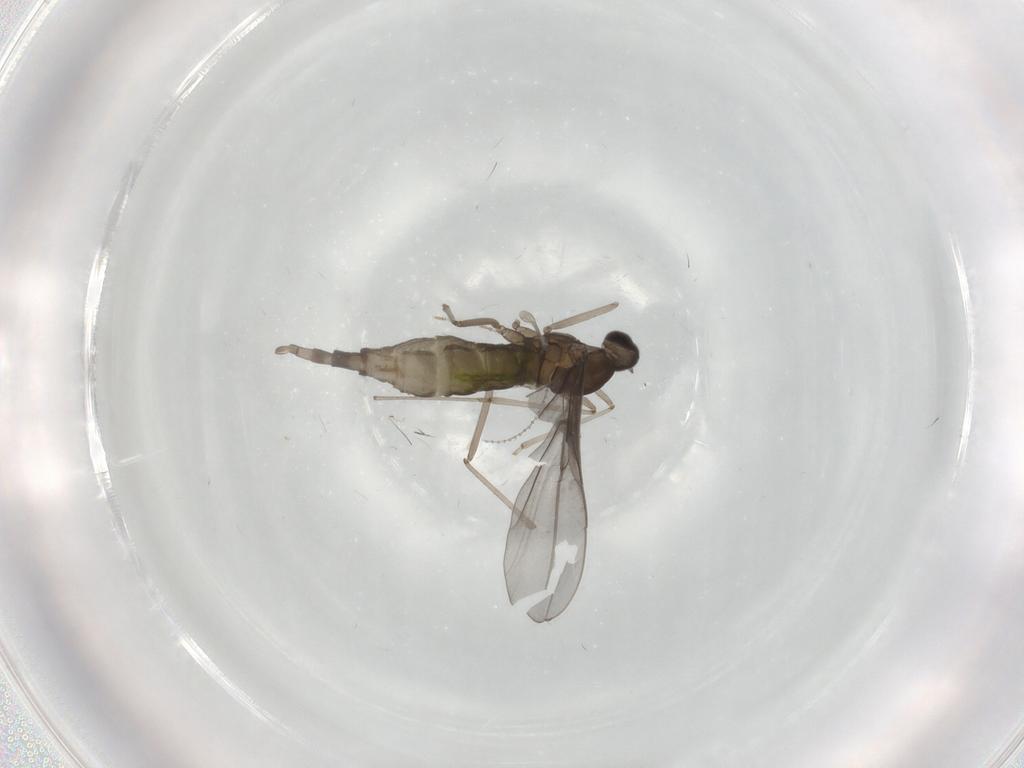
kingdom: Animalia
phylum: Arthropoda
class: Insecta
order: Diptera
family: Cecidomyiidae
